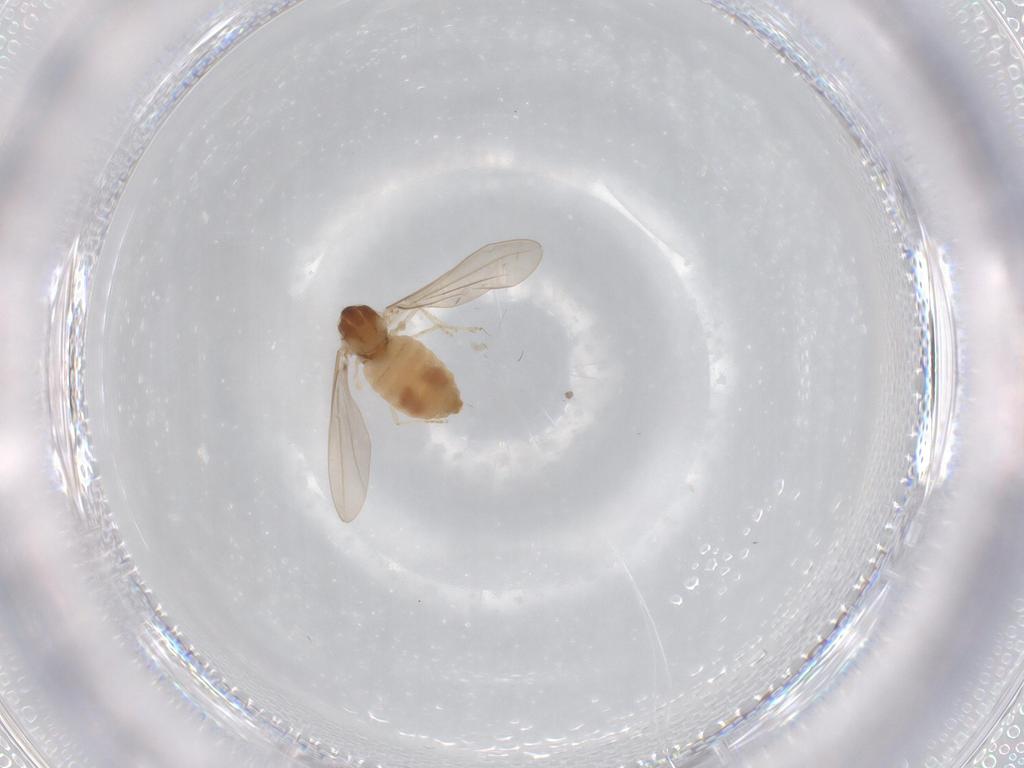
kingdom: Animalia
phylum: Arthropoda
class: Insecta
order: Diptera
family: Cecidomyiidae
